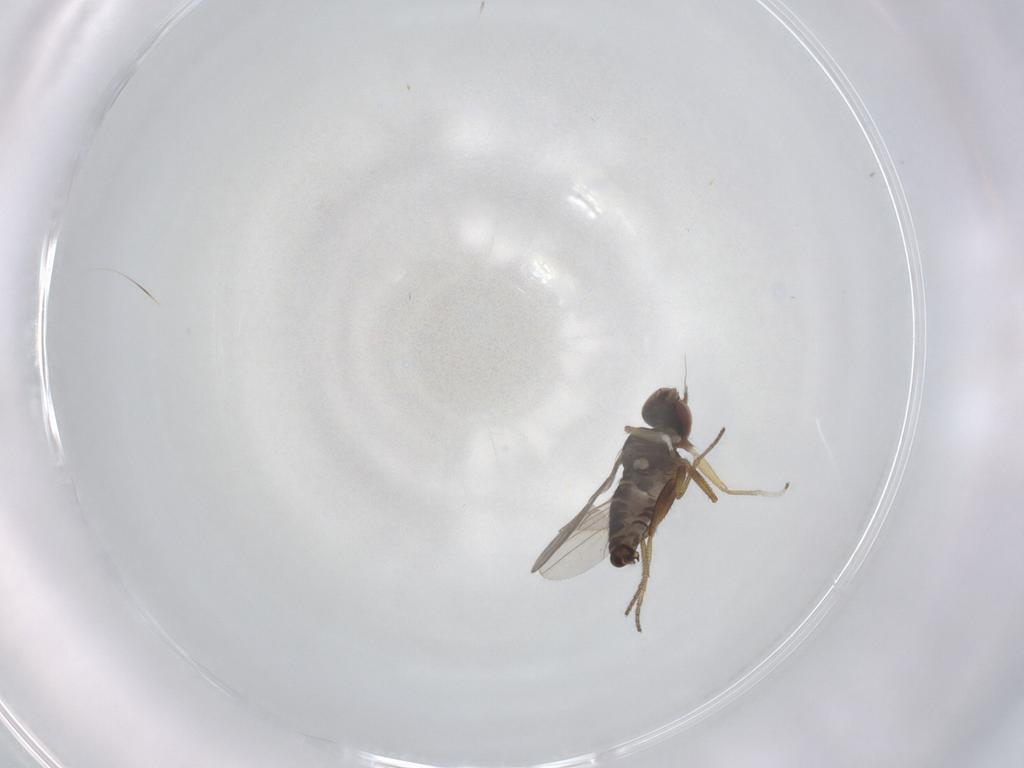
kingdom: Animalia
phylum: Arthropoda
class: Insecta
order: Diptera
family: Dolichopodidae
